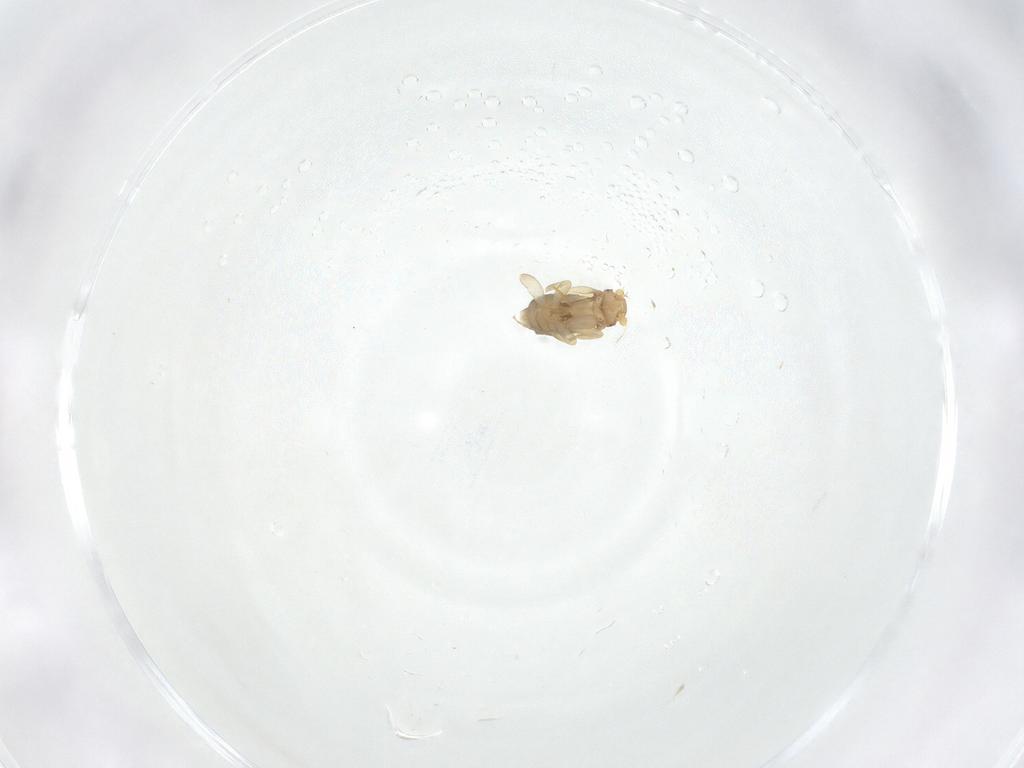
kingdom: Animalia
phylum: Arthropoda
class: Insecta
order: Diptera
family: Phoridae
